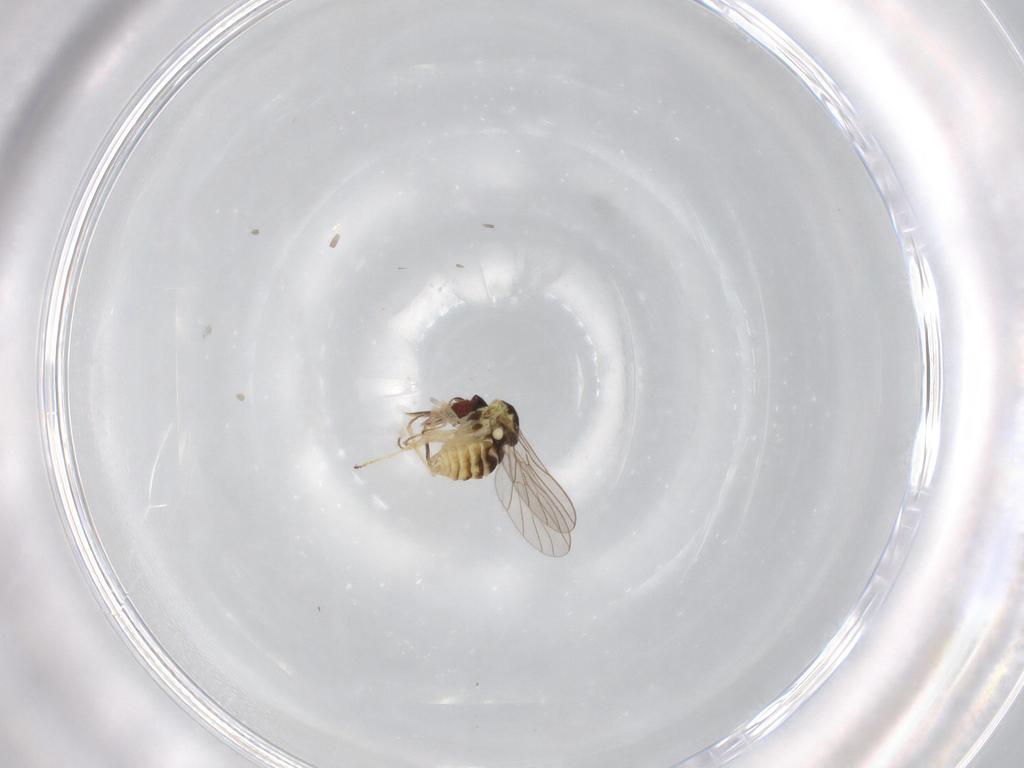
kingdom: Animalia
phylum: Arthropoda
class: Insecta
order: Diptera
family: Bombyliidae
